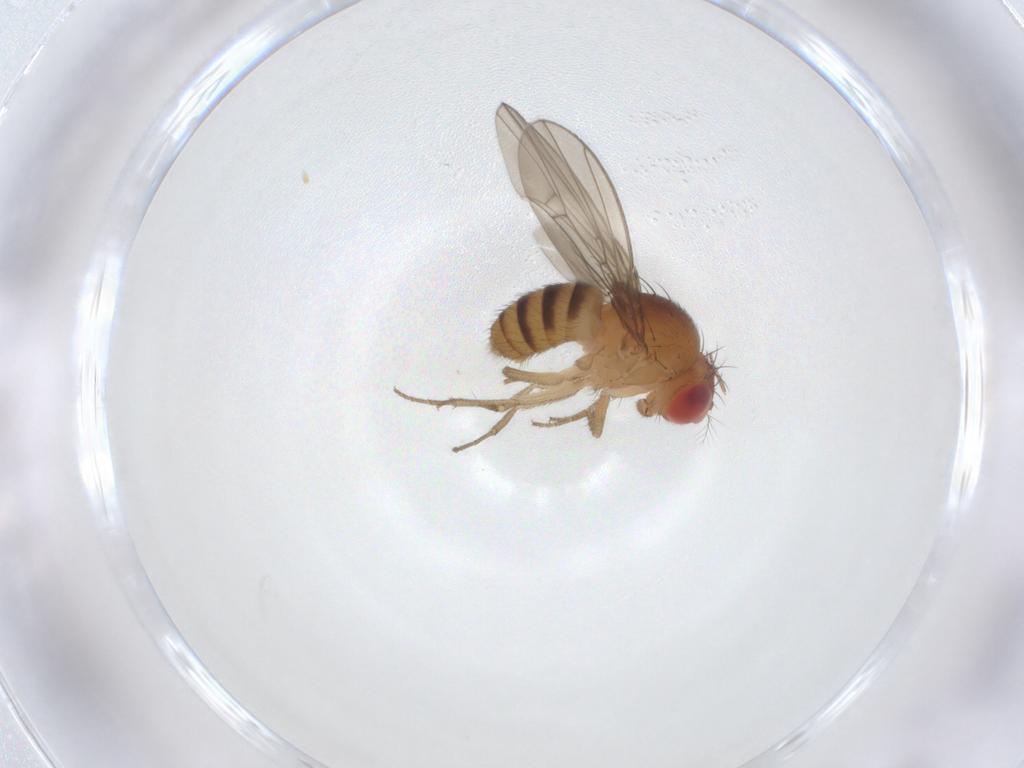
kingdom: Animalia
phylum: Arthropoda
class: Insecta
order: Diptera
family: Drosophilidae
